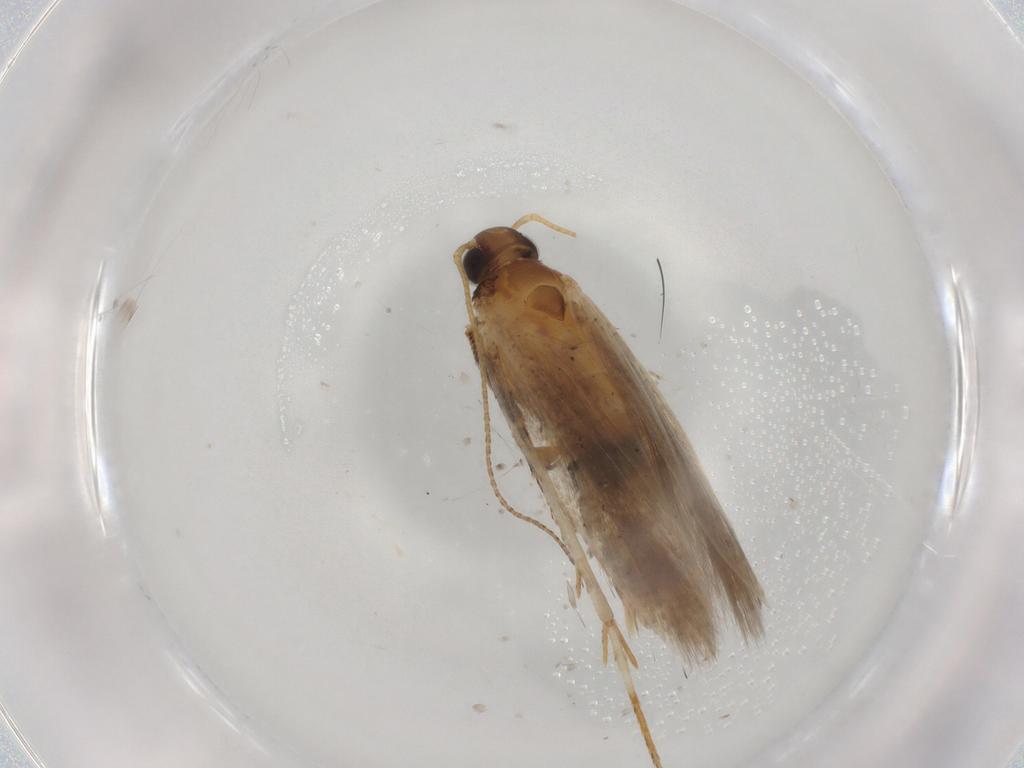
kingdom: Animalia
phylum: Arthropoda
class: Insecta
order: Lepidoptera
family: Gelechiidae
